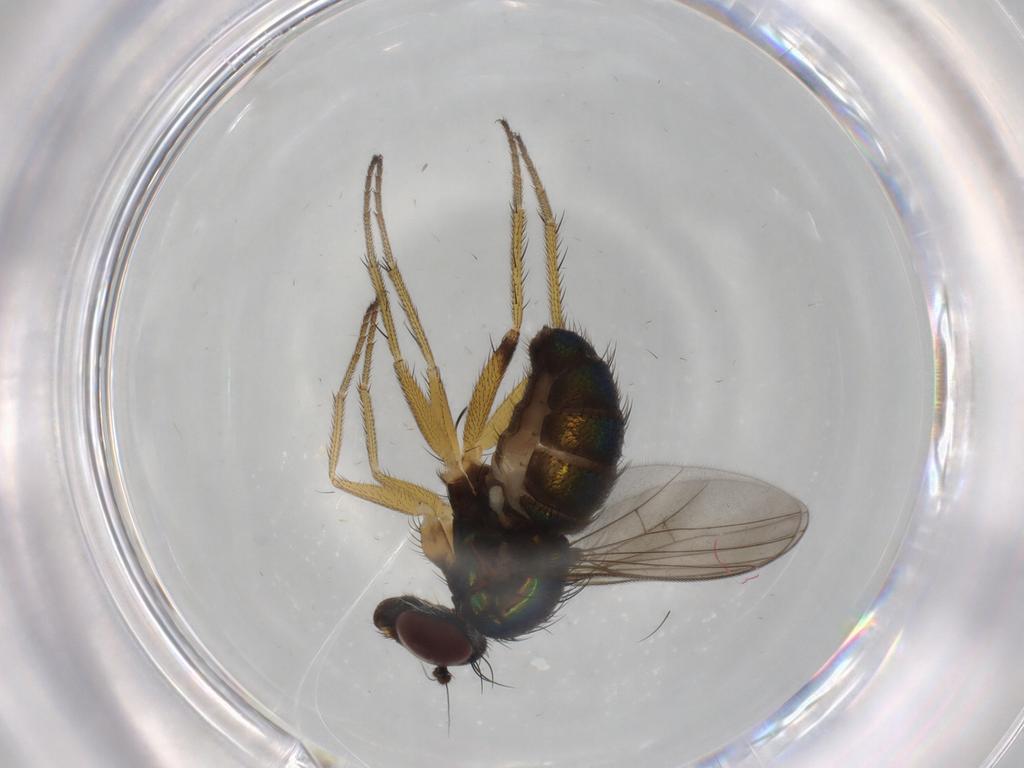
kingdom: Animalia
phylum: Arthropoda
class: Insecta
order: Diptera
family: Dolichopodidae
